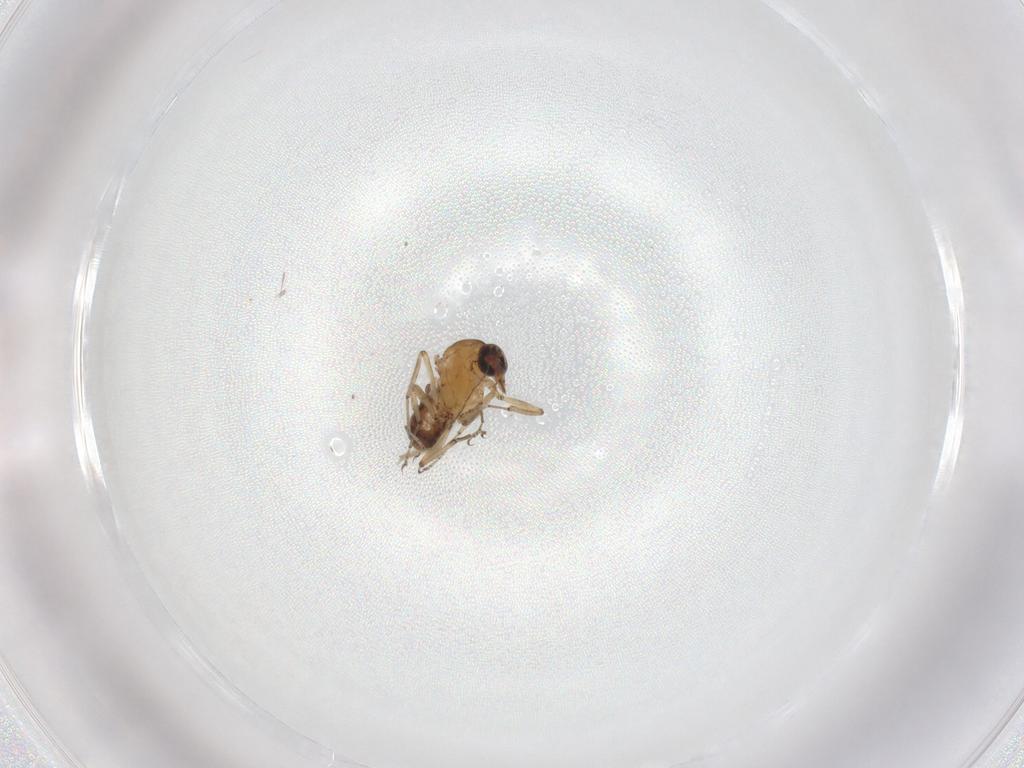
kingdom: Animalia
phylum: Arthropoda
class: Insecta
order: Diptera
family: Ceratopogonidae
